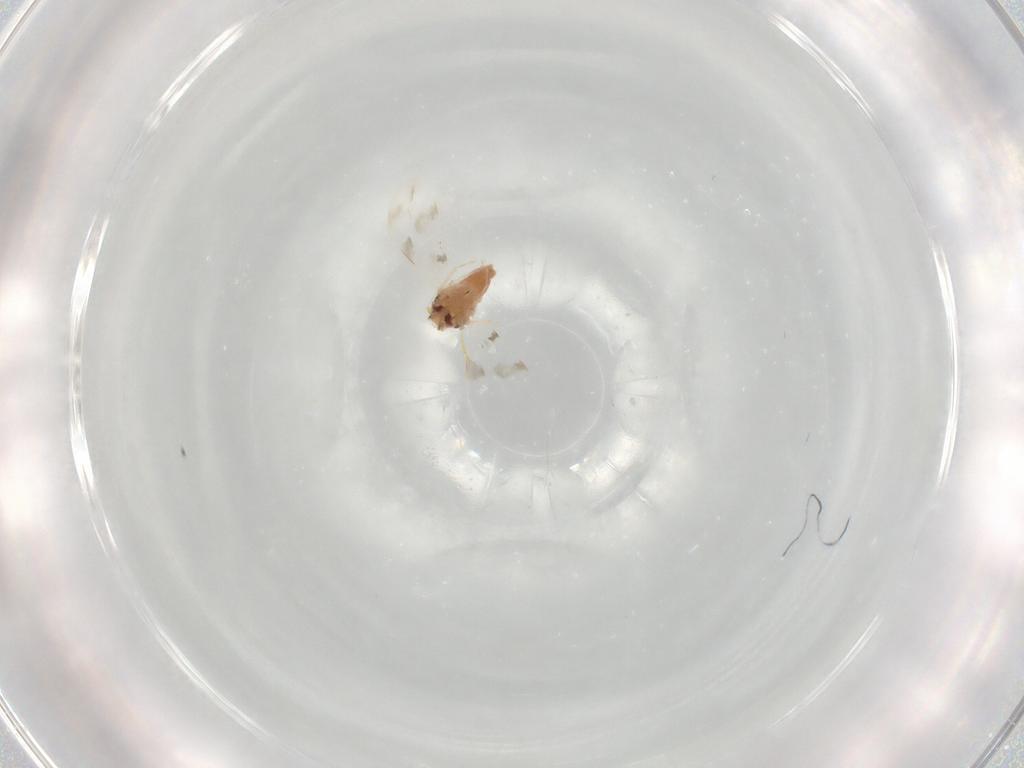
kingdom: Animalia
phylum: Arthropoda
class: Insecta
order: Hemiptera
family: Aleyrodidae
